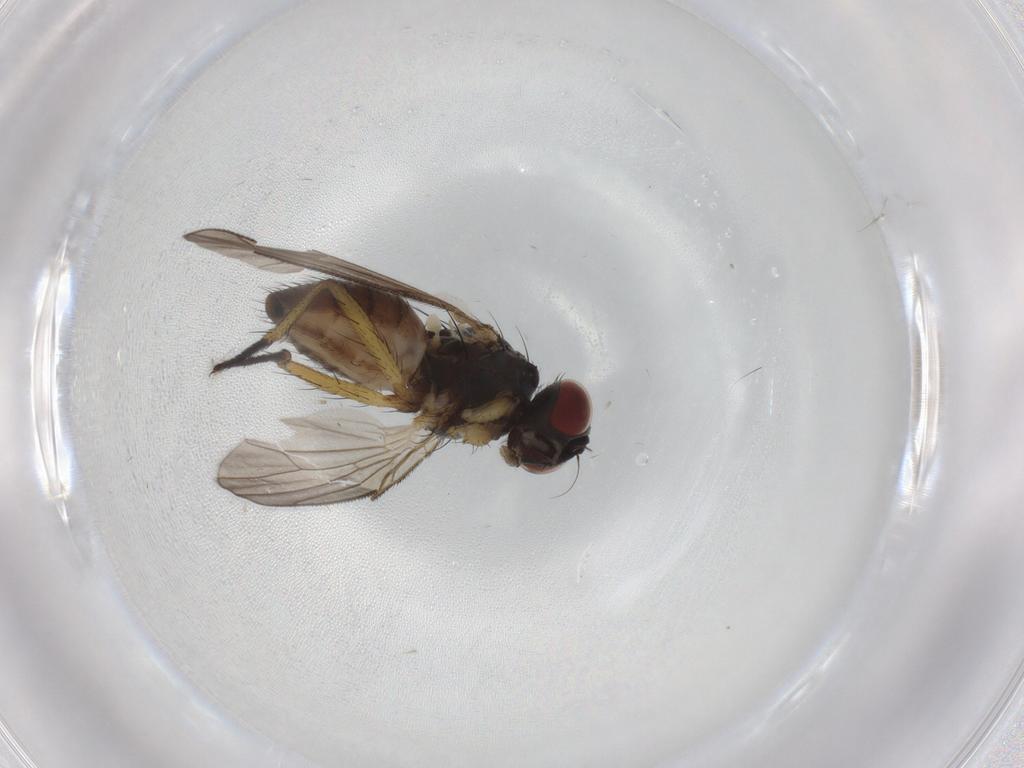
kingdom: Animalia
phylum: Arthropoda
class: Insecta
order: Diptera
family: Muscidae
